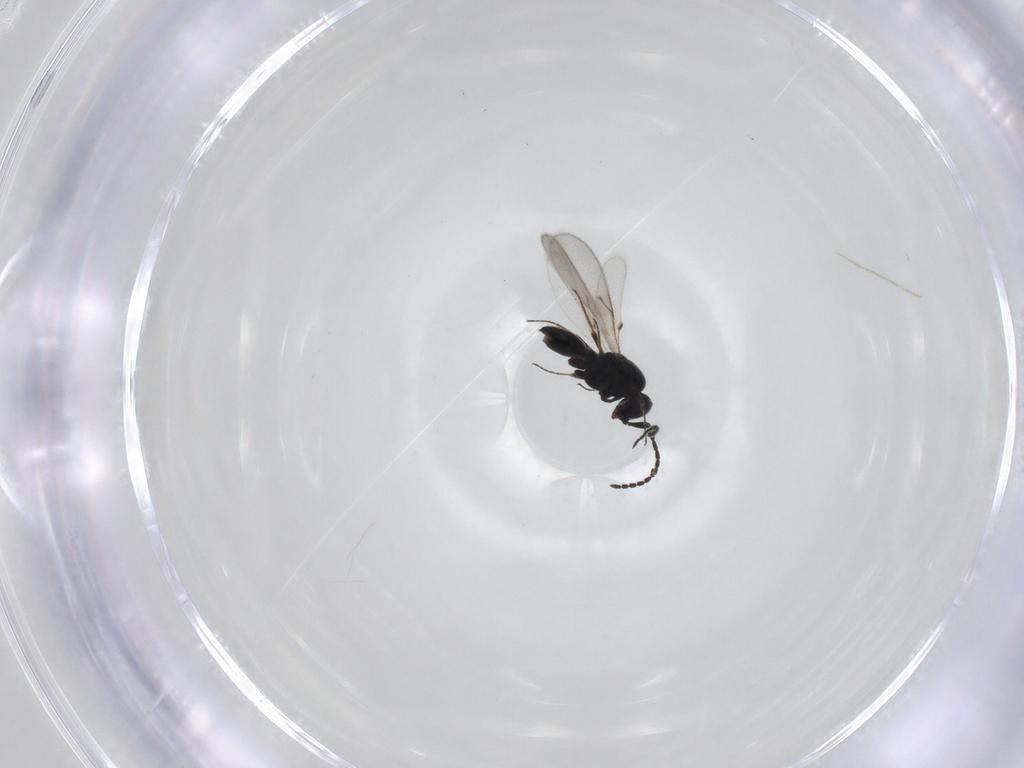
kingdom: Animalia
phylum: Arthropoda
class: Insecta
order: Hymenoptera
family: Scelionidae
